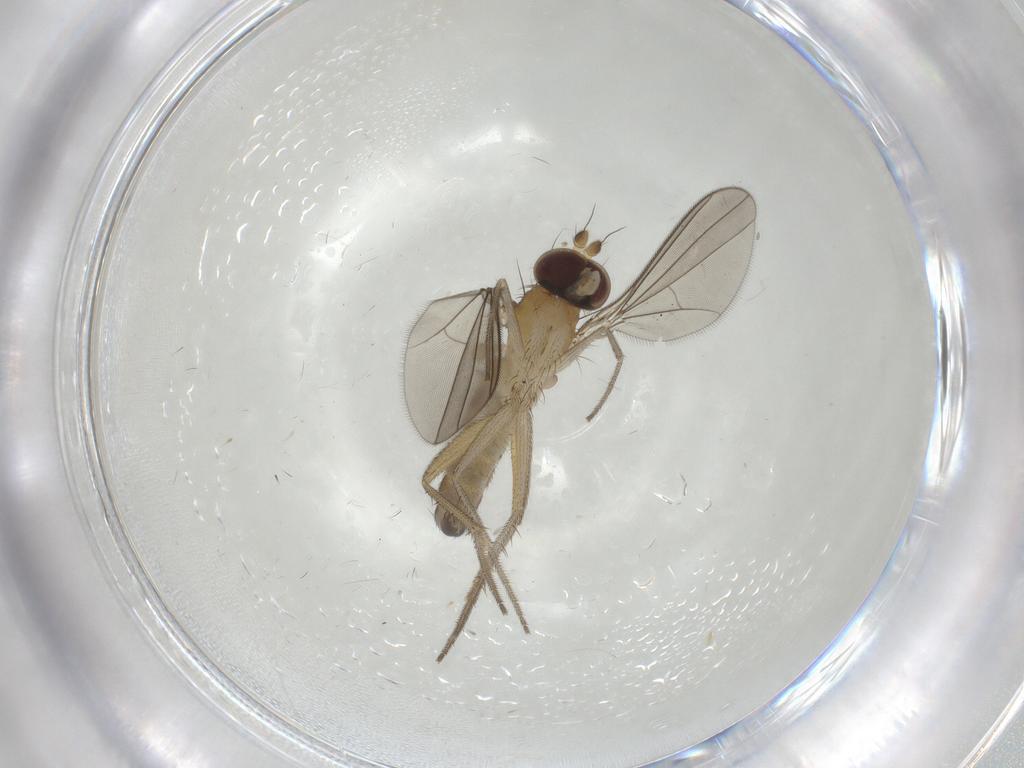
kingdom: Animalia
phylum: Arthropoda
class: Insecta
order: Diptera
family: Dolichopodidae
